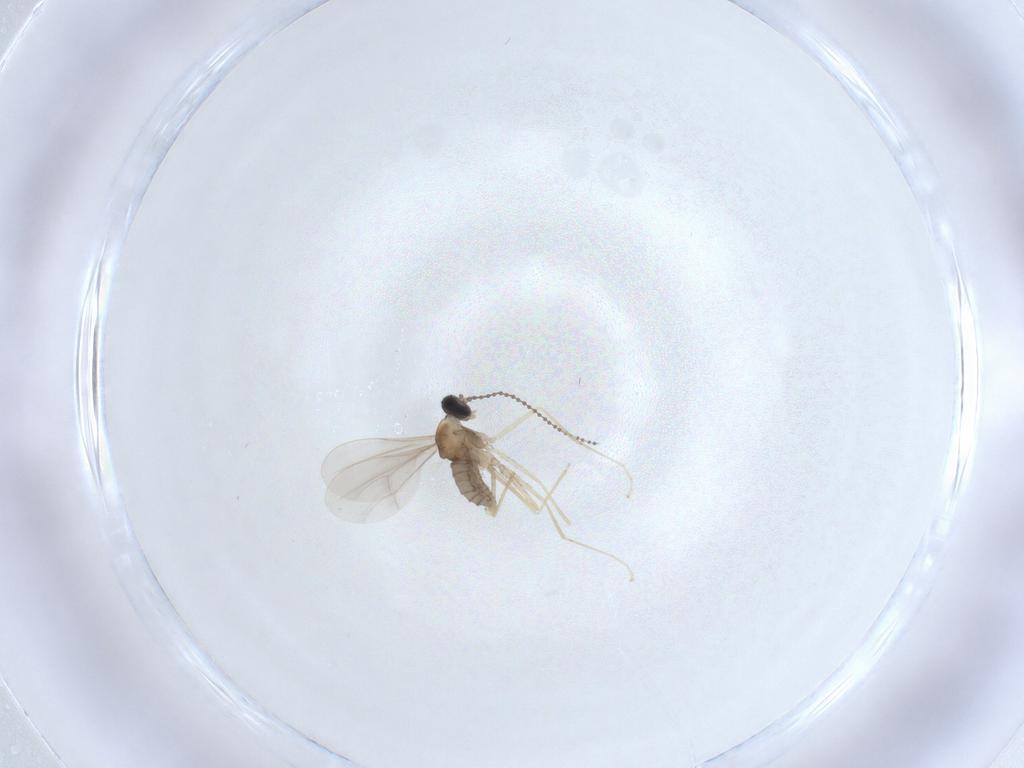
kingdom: Animalia
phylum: Arthropoda
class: Insecta
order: Diptera
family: Cecidomyiidae
